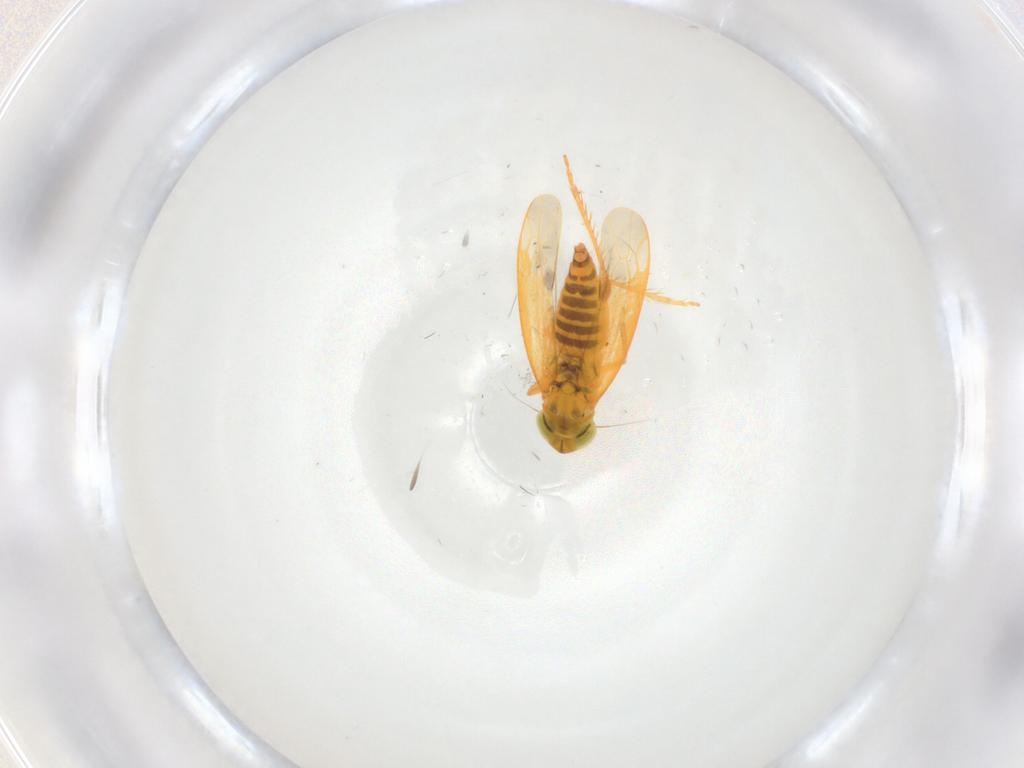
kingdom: Animalia
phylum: Arthropoda
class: Insecta
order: Hemiptera
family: Cicadellidae
